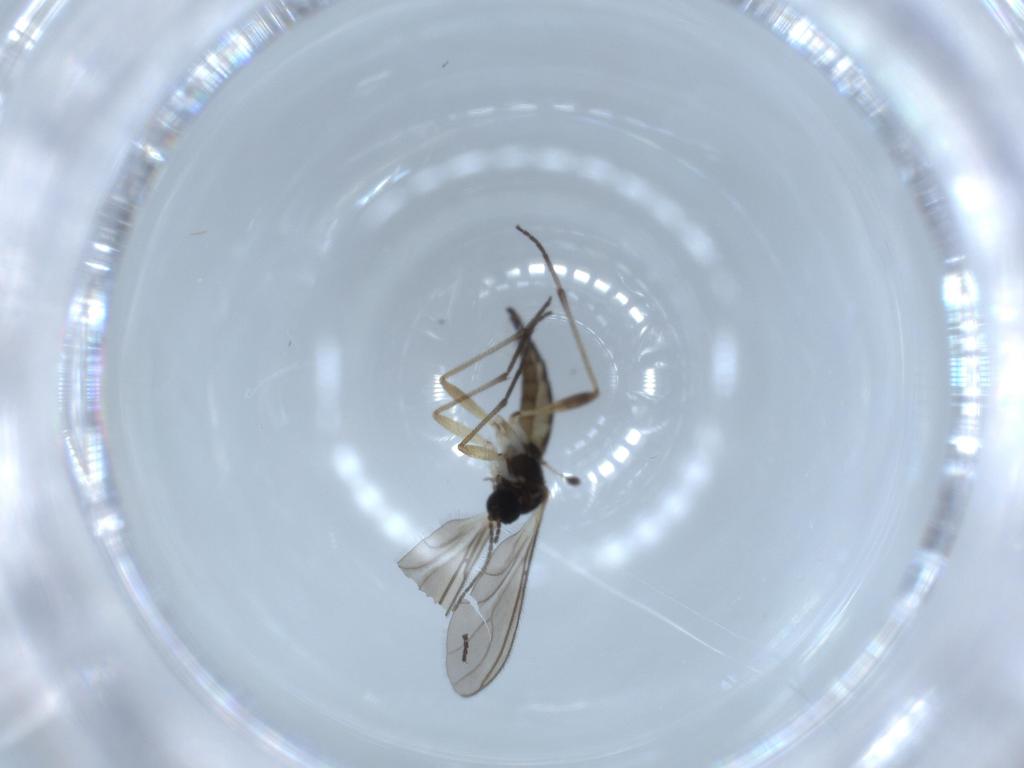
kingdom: Animalia
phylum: Arthropoda
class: Insecta
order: Diptera
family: Sciaridae
